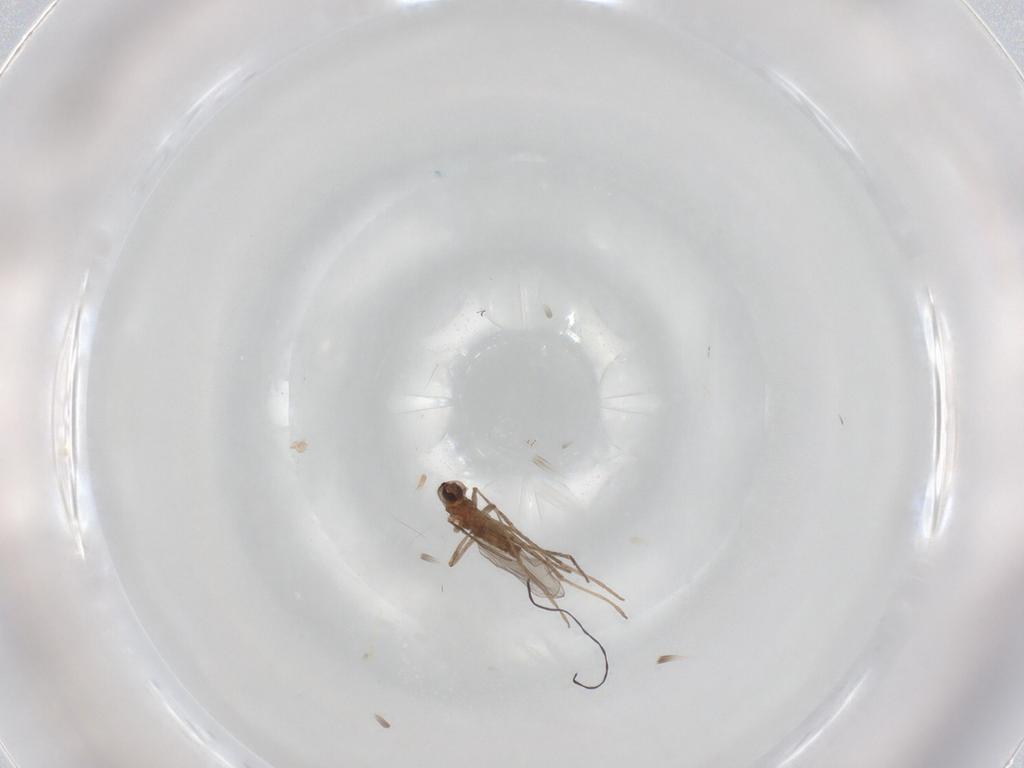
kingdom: Animalia
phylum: Arthropoda
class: Insecta
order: Diptera
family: Cecidomyiidae
